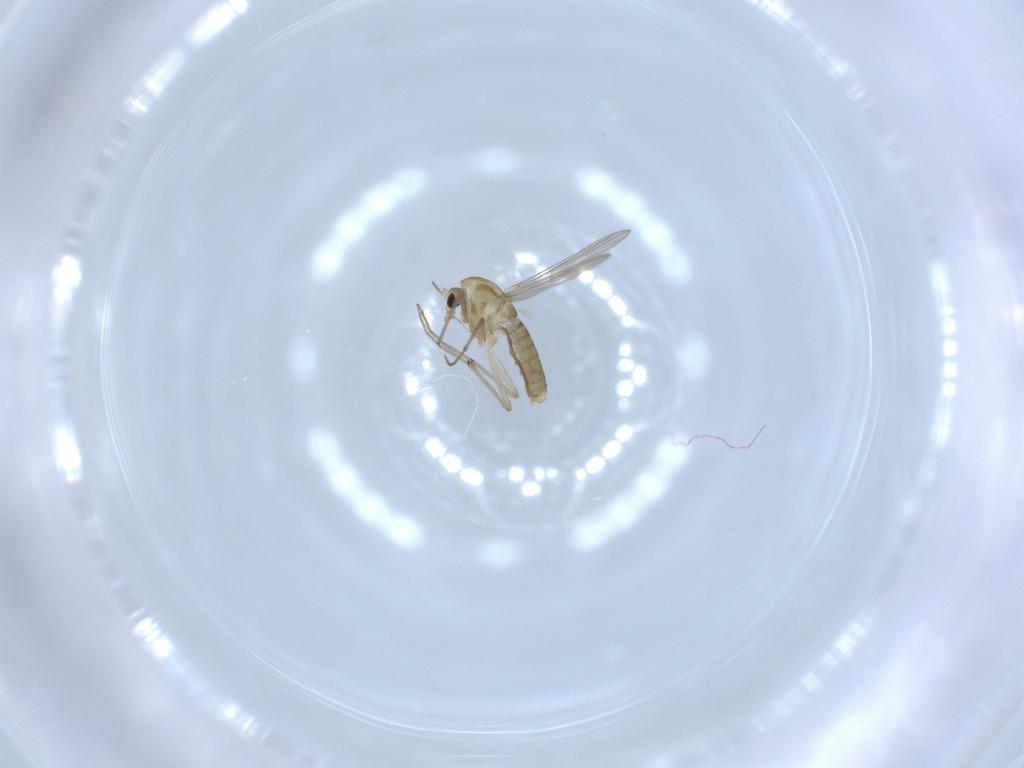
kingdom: Animalia
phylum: Arthropoda
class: Insecta
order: Diptera
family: Chironomidae
